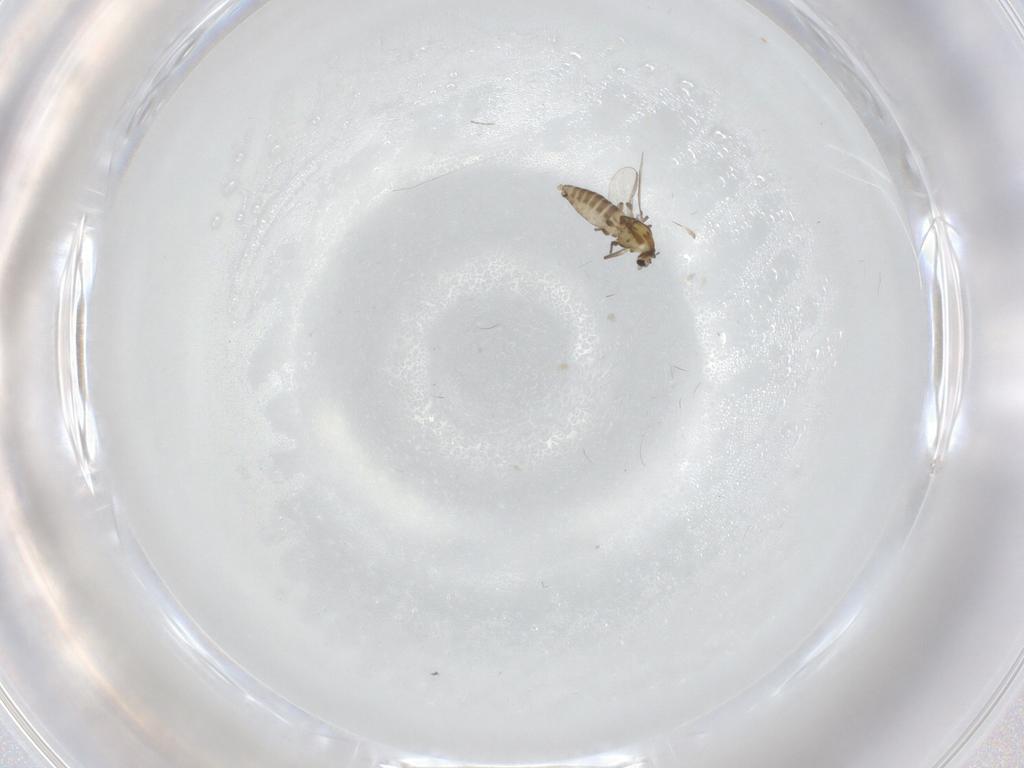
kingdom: Animalia
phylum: Arthropoda
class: Insecta
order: Diptera
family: Chironomidae
